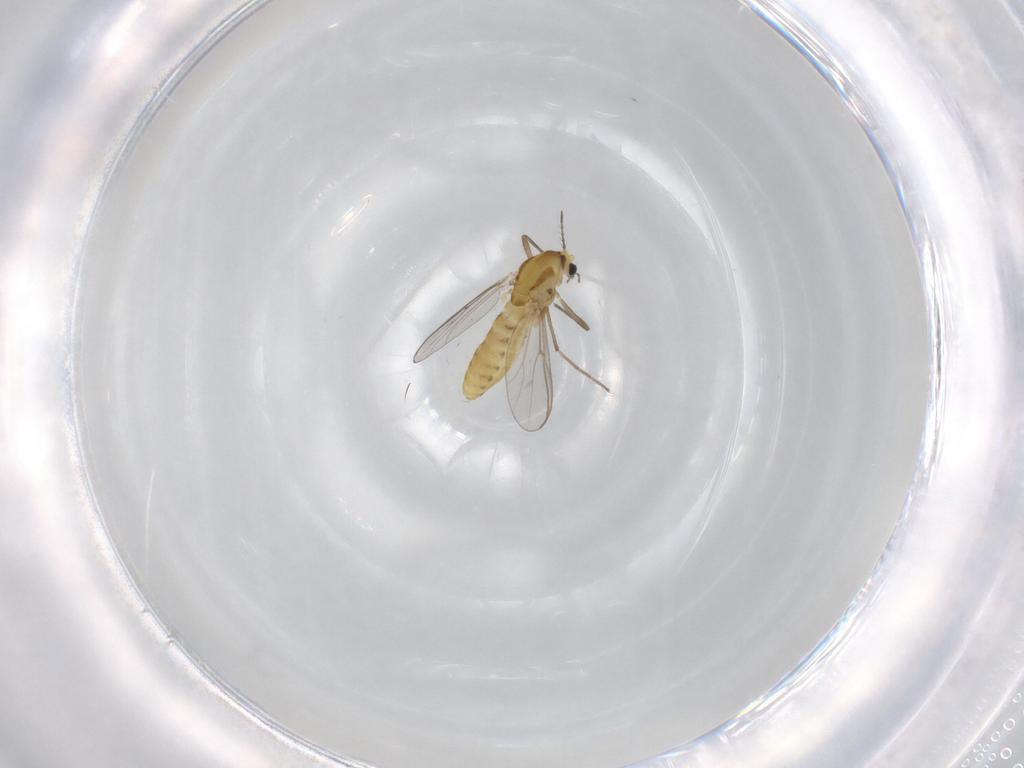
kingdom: Animalia
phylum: Arthropoda
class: Insecta
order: Diptera
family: Chironomidae
